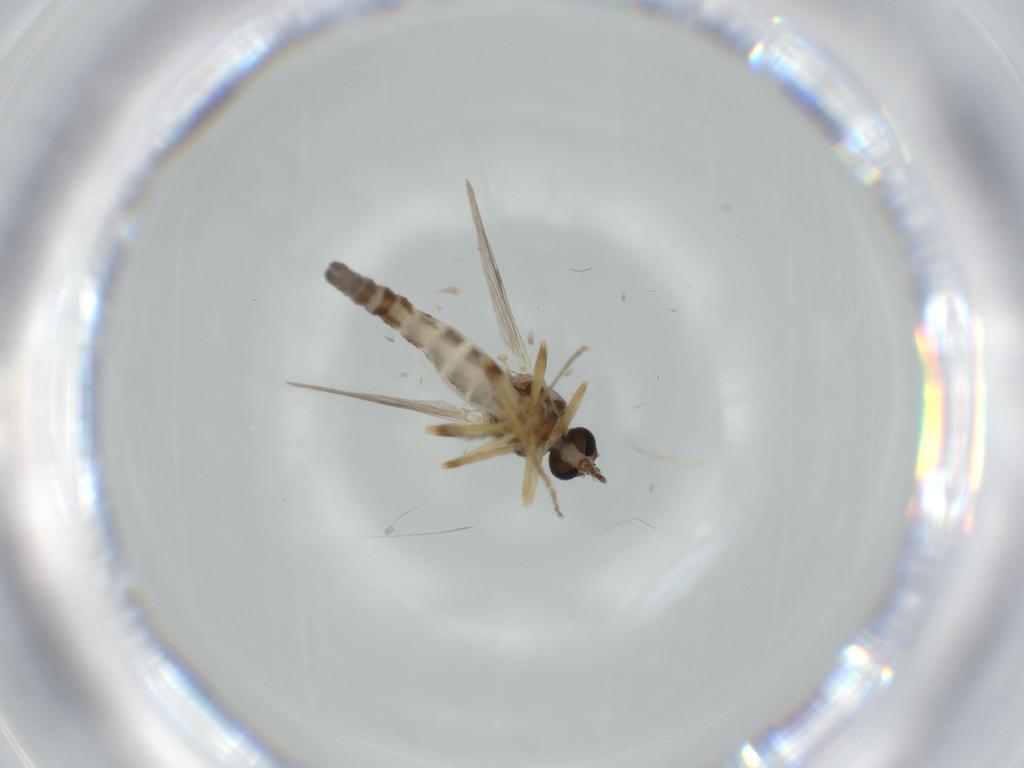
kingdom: Animalia
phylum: Arthropoda
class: Insecta
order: Diptera
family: Ceratopogonidae
